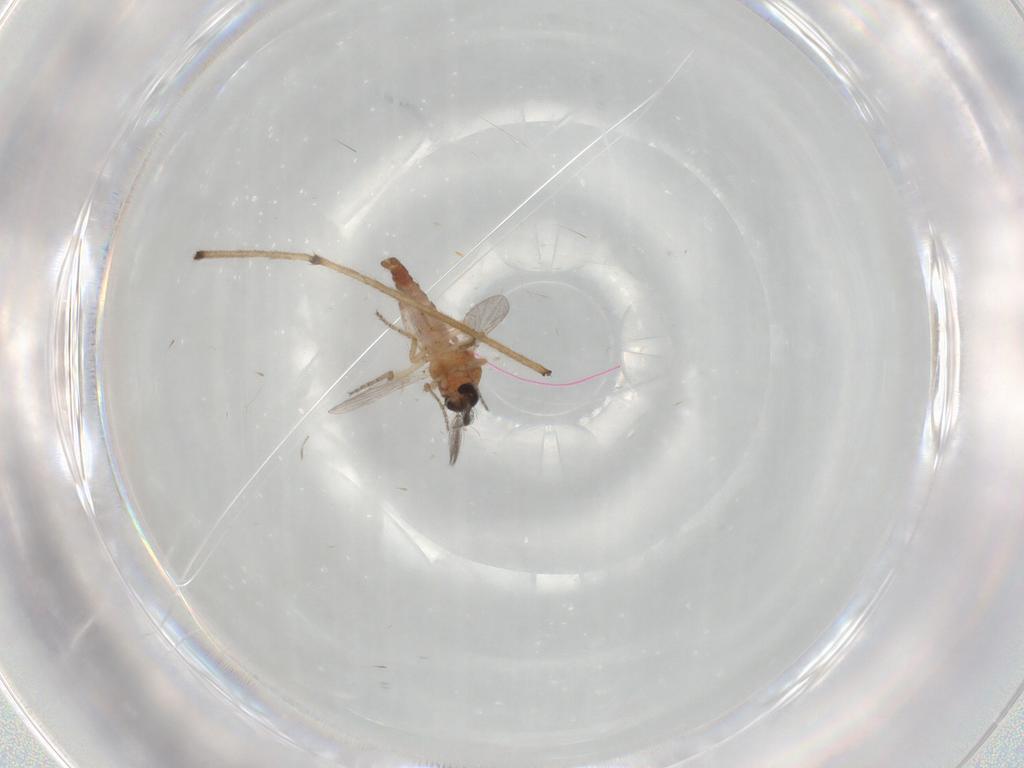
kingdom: Animalia
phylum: Arthropoda
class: Insecta
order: Diptera
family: Ceratopogonidae
